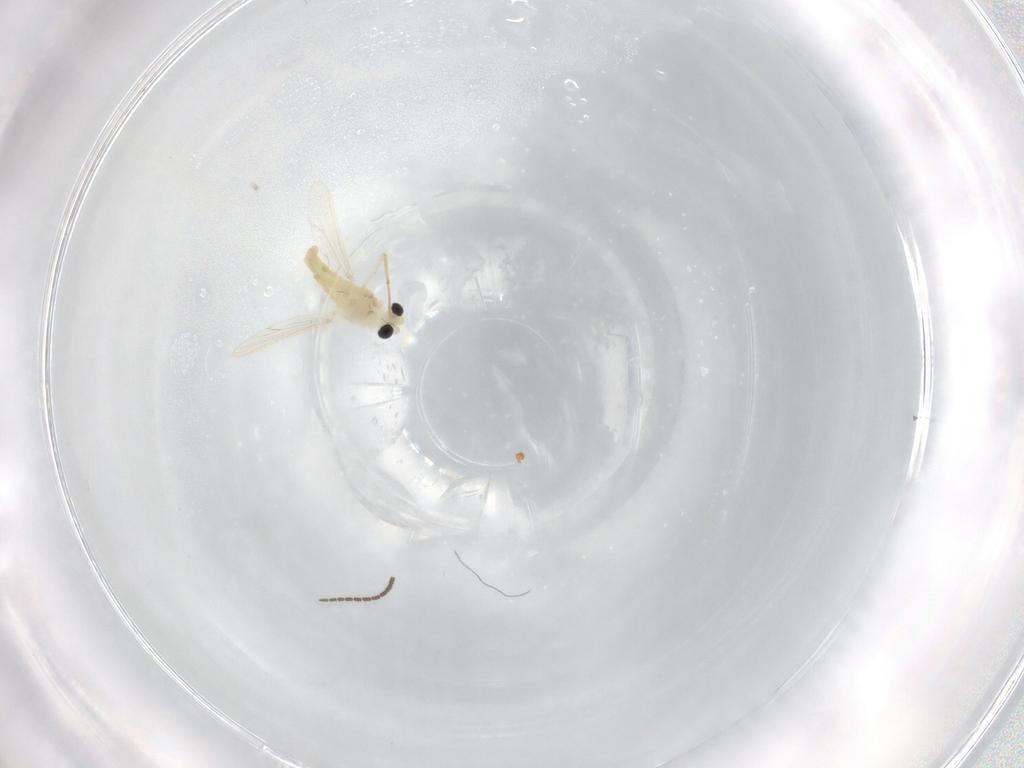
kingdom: Animalia
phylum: Arthropoda
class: Insecta
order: Diptera
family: Chironomidae
